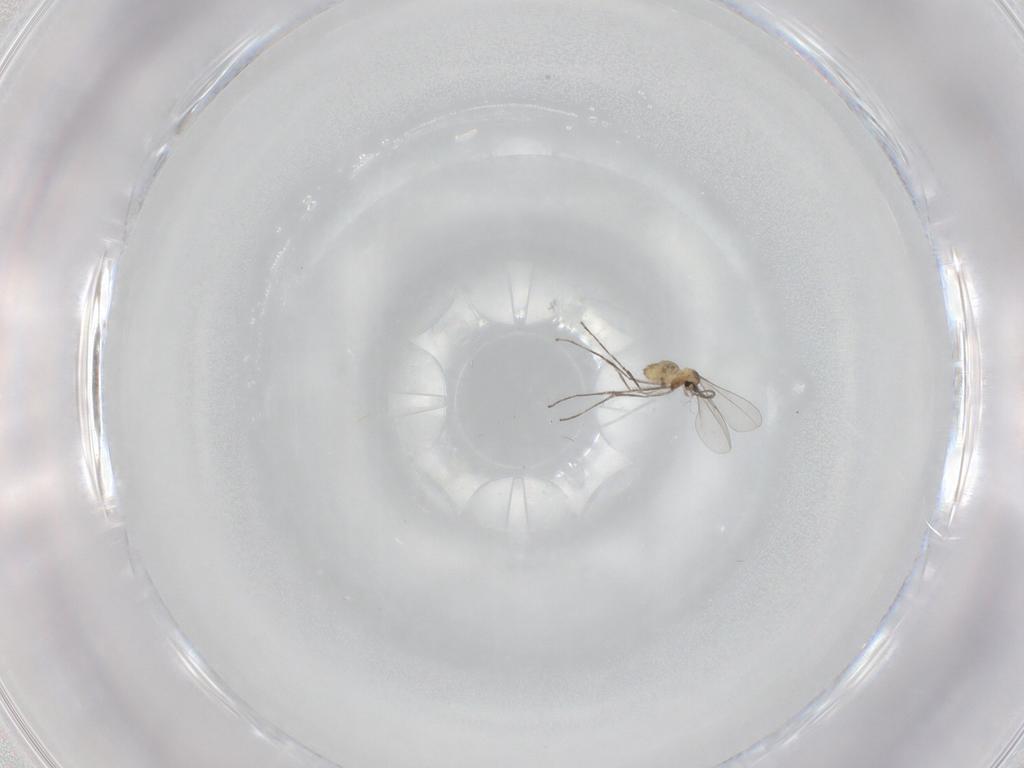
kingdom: Animalia
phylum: Arthropoda
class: Insecta
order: Diptera
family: Cecidomyiidae
